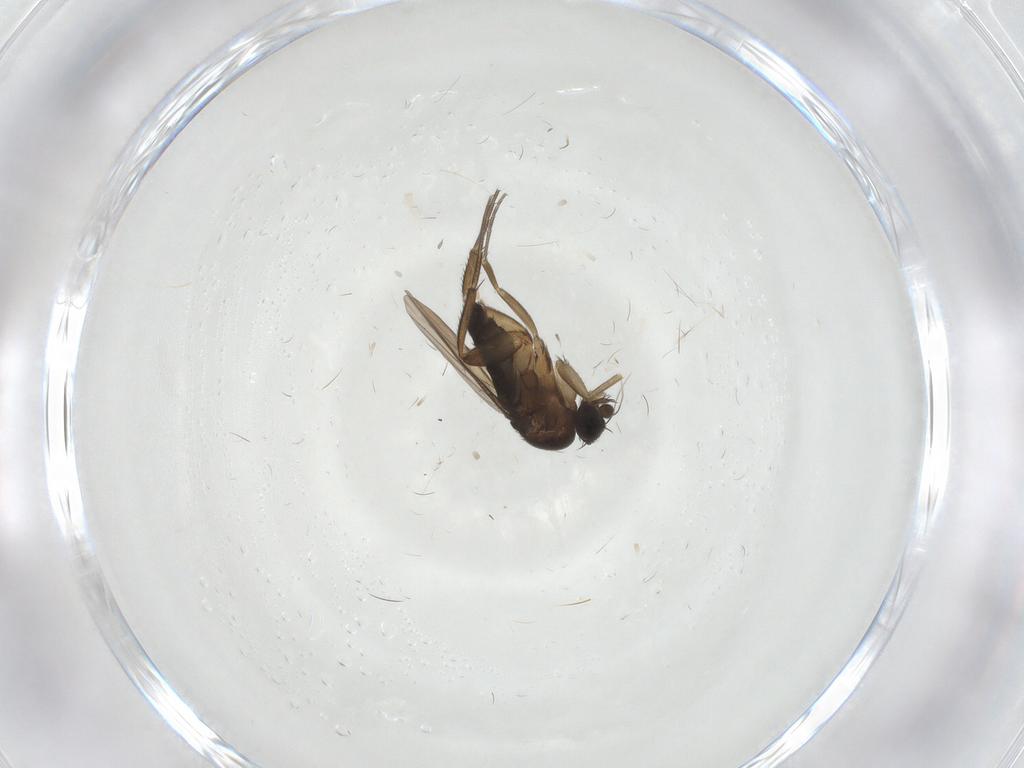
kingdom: Animalia
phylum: Arthropoda
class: Insecta
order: Diptera
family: Phoridae
